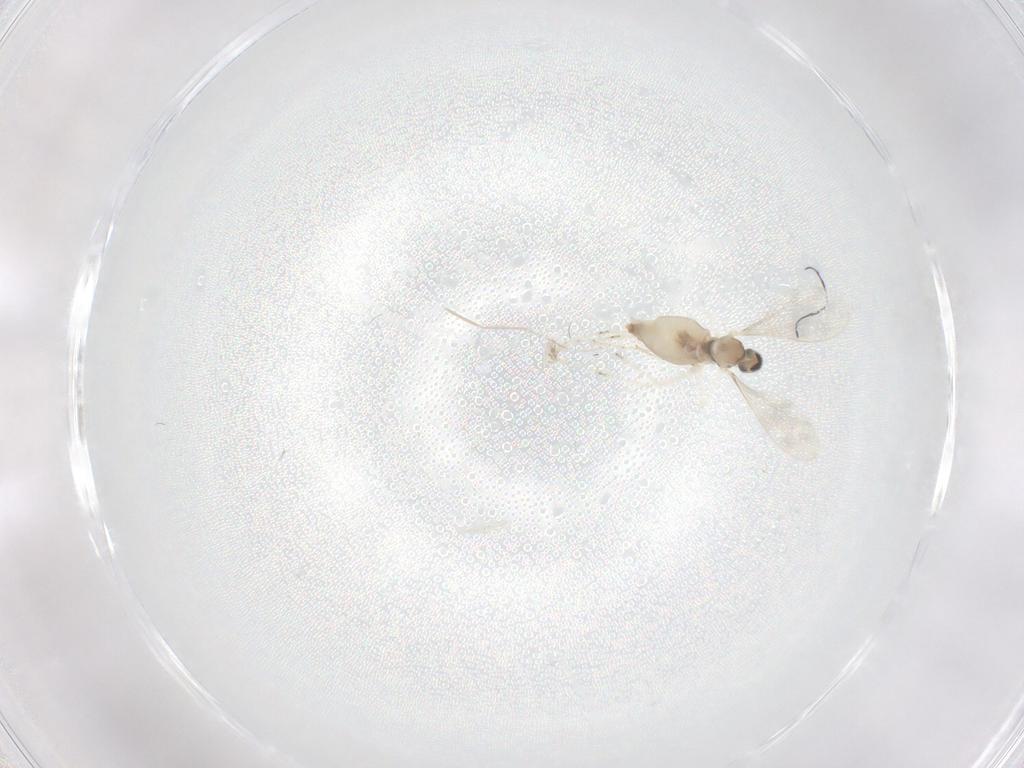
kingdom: Animalia
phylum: Arthropoda
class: Insecta
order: Diptera
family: Cecidomyiidae
